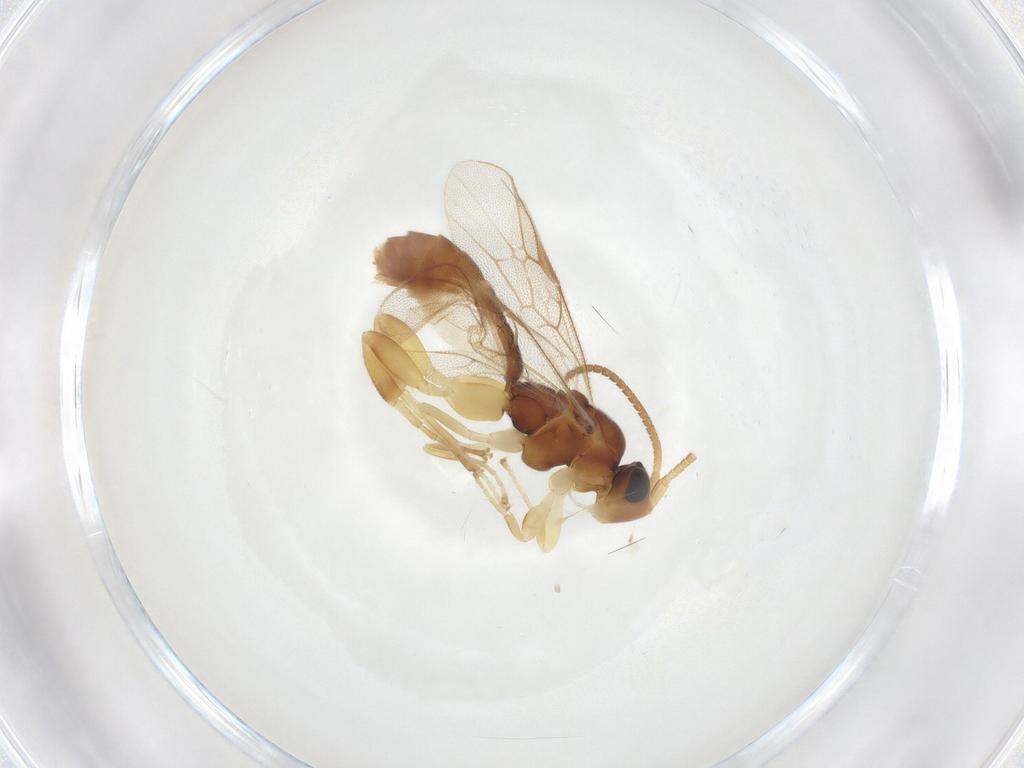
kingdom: Animalia
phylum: Arthropoda
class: Insecta
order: Hymenoptera
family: Ichneumonidae
